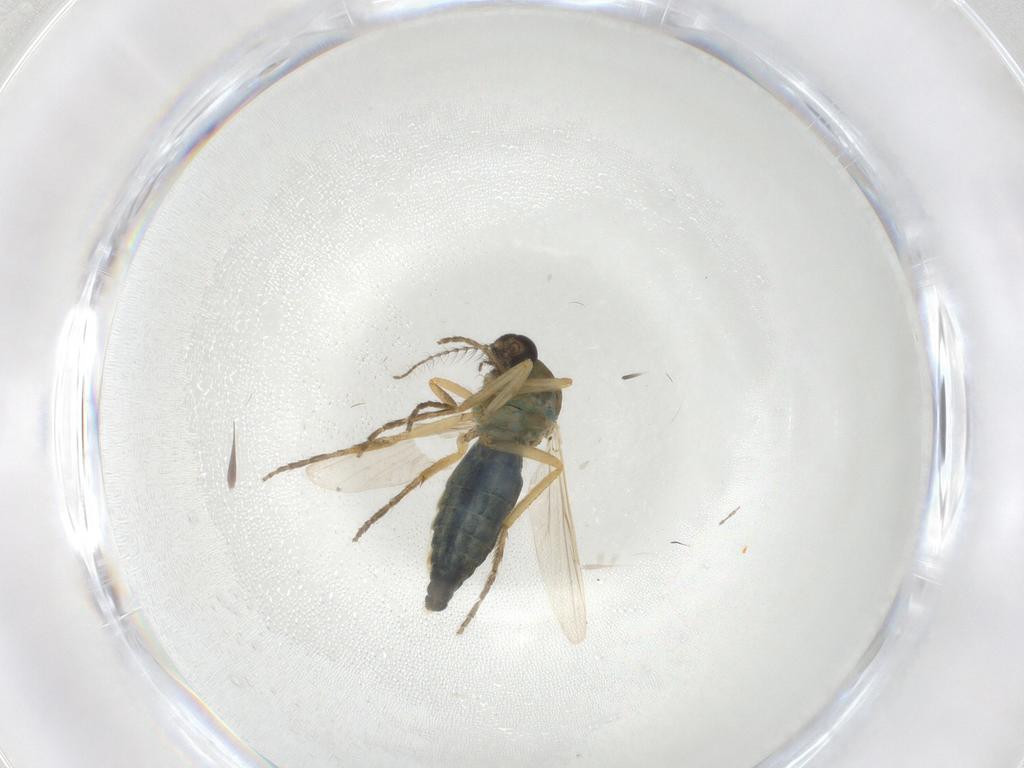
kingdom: Animalia
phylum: Arthropoda
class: Insecta
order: Diptera
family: Ceratopogonidae
